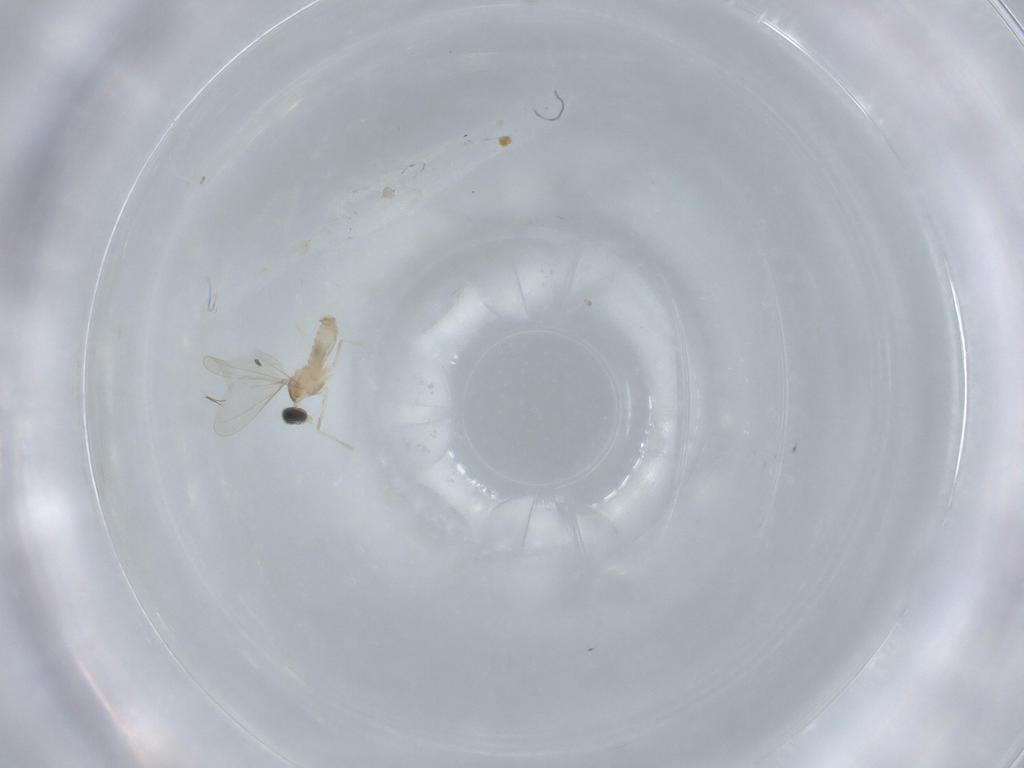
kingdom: Animalia
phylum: Arthropoda
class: Insecta
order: Diptera
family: Cecidomyiidae
